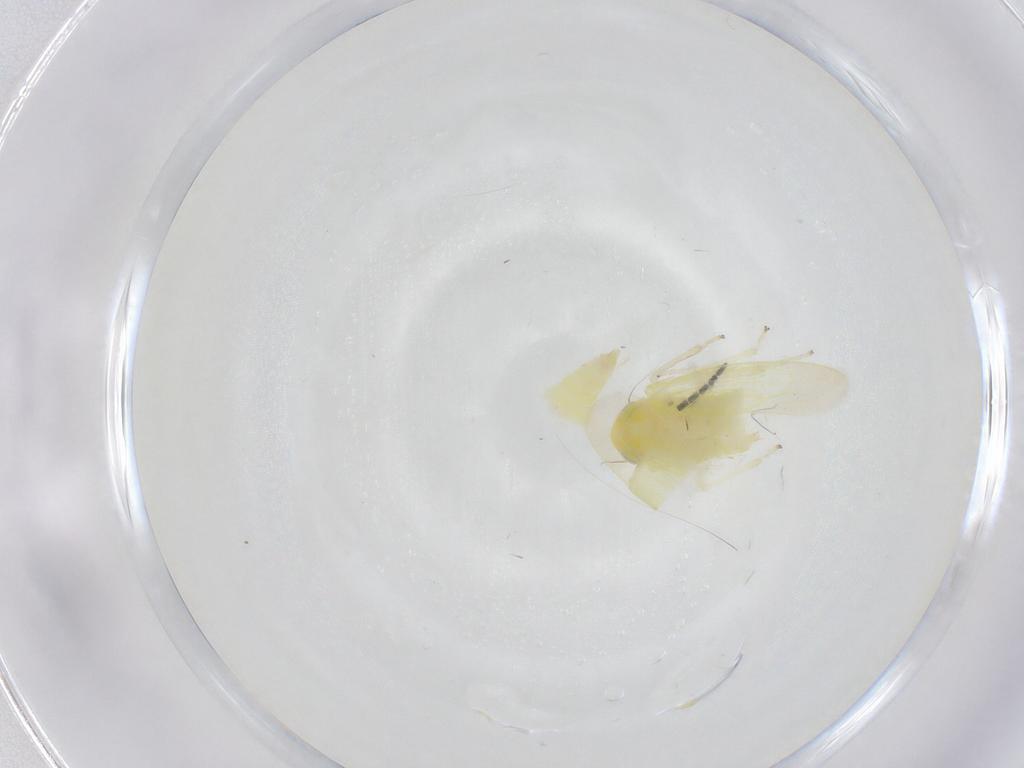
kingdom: Animalia
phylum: Arthropoda
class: Insecta
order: Hemiptera
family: Cicadellidae
